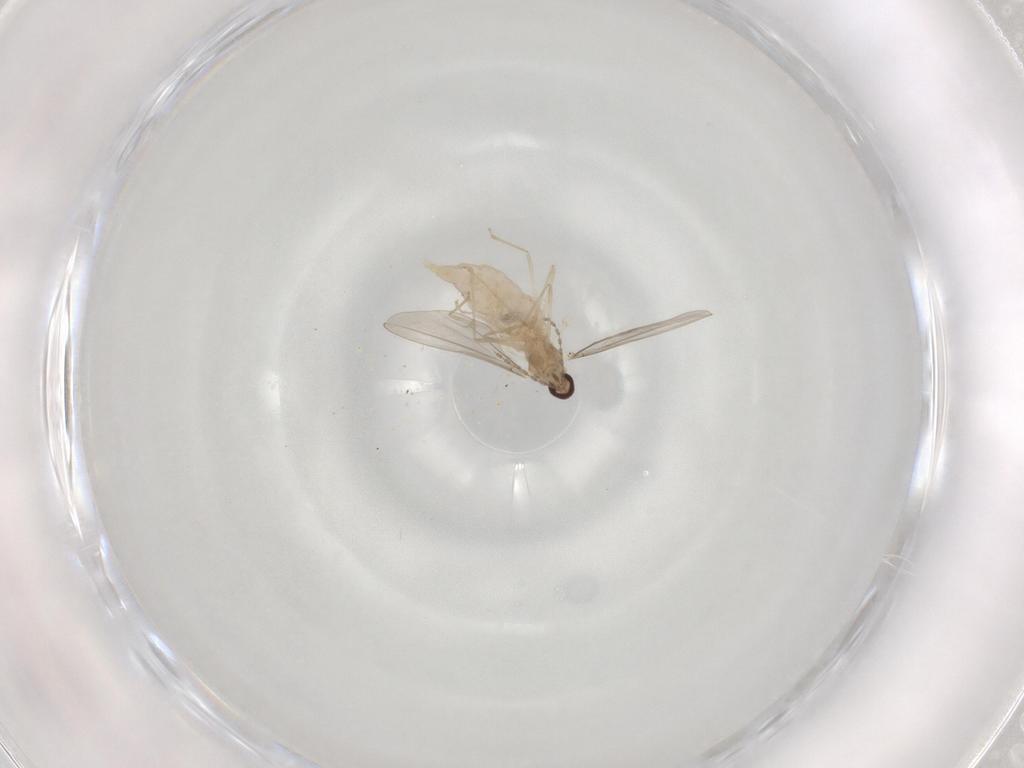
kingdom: Animalia
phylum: Arthropoda
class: Insecta
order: Diptera
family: Cecidomyiidae
